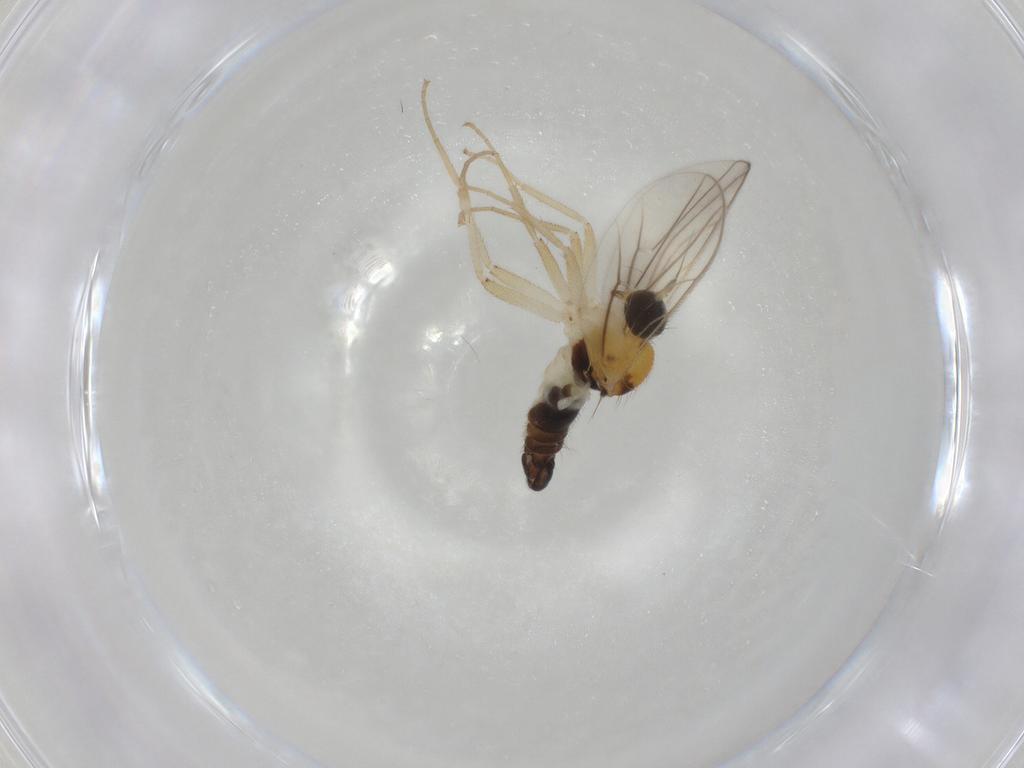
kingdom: Animalia
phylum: Arthropoda
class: Insecta
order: Diptera
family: Hybotidae
